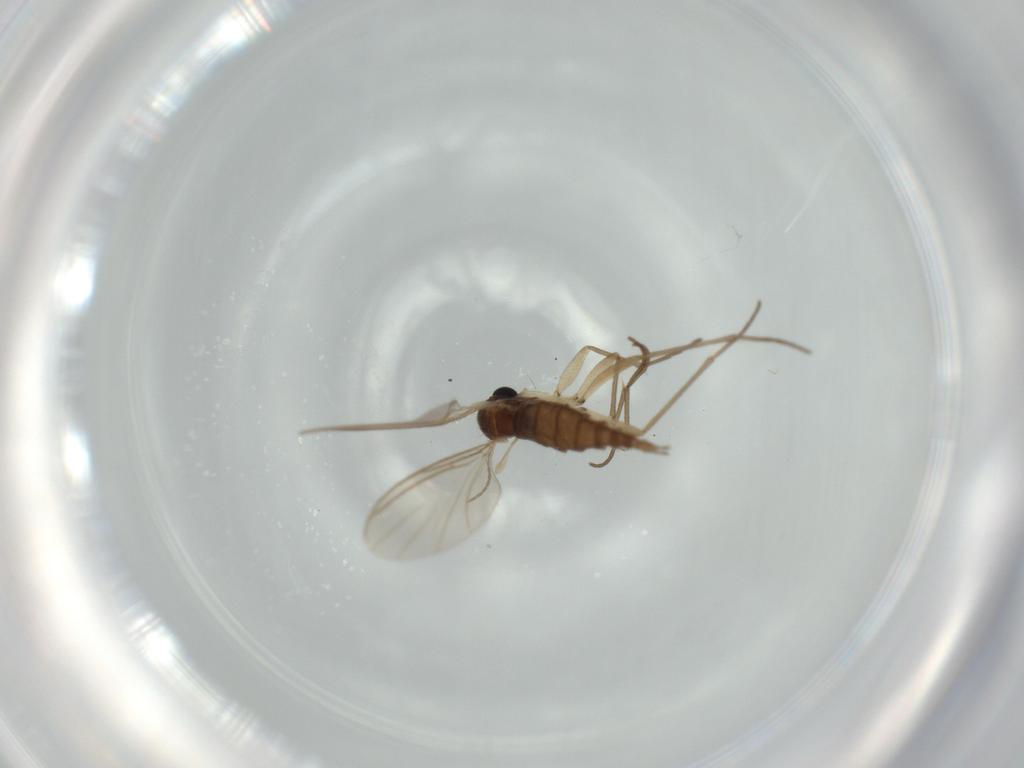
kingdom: Animalia
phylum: Arthropoda
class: Insecta
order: Diptera
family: Sciaridae
